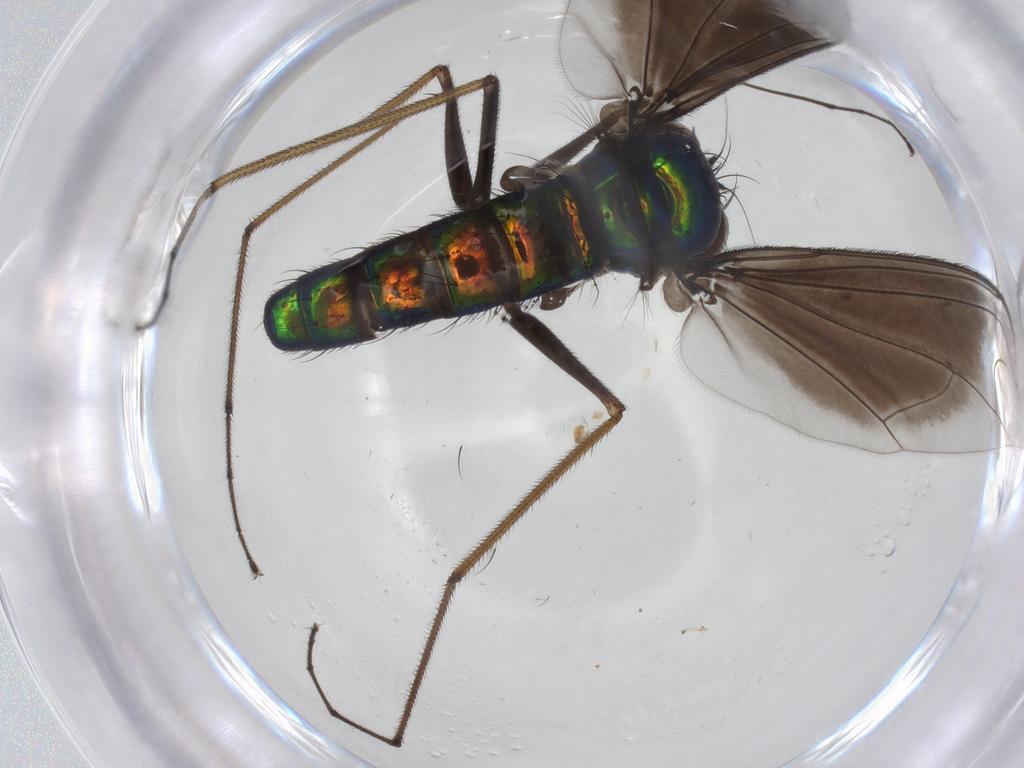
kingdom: Animalia
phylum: Arthropoda
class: Insecta
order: Diptera
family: Dolichopodidae
